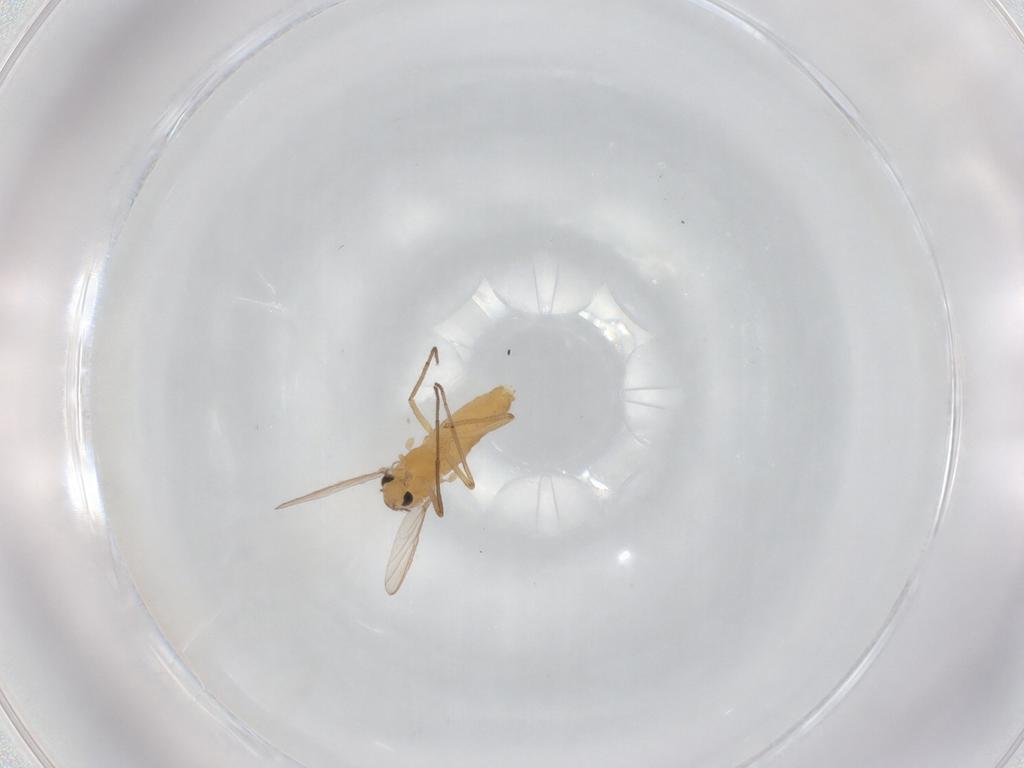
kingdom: Animalia
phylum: Arthropoda
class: Insecta
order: Diptera
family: Chironomidae
